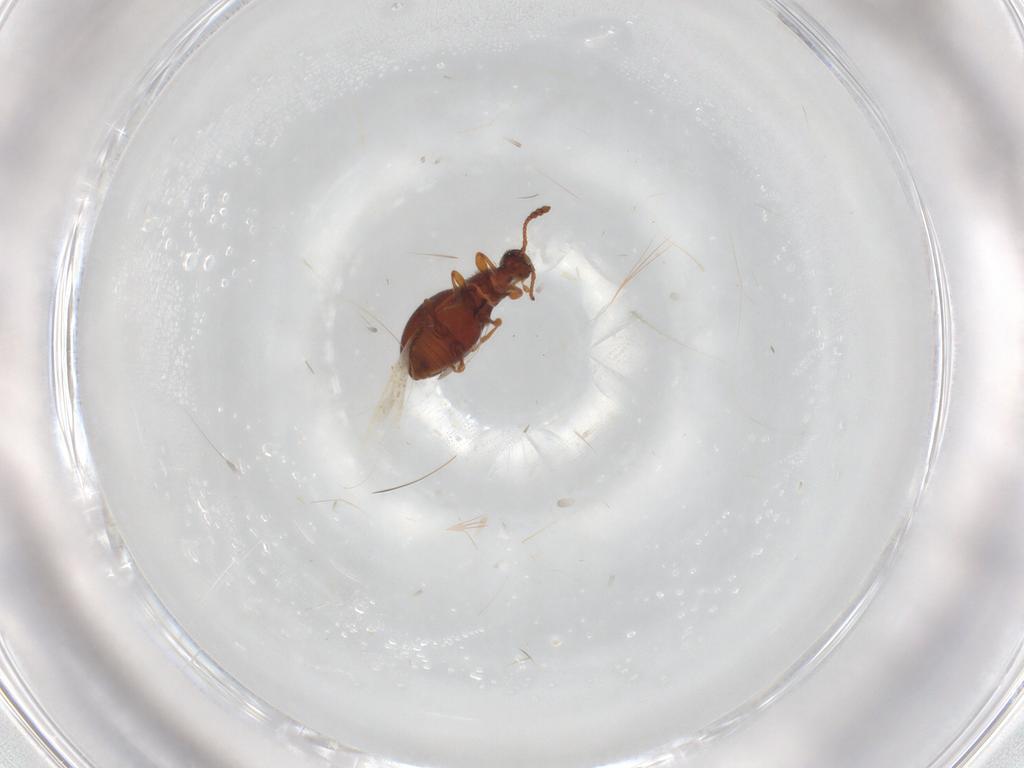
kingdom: Animalia
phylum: Arthropoda
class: Insecta
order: Coleoptera
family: Staphylinidae
